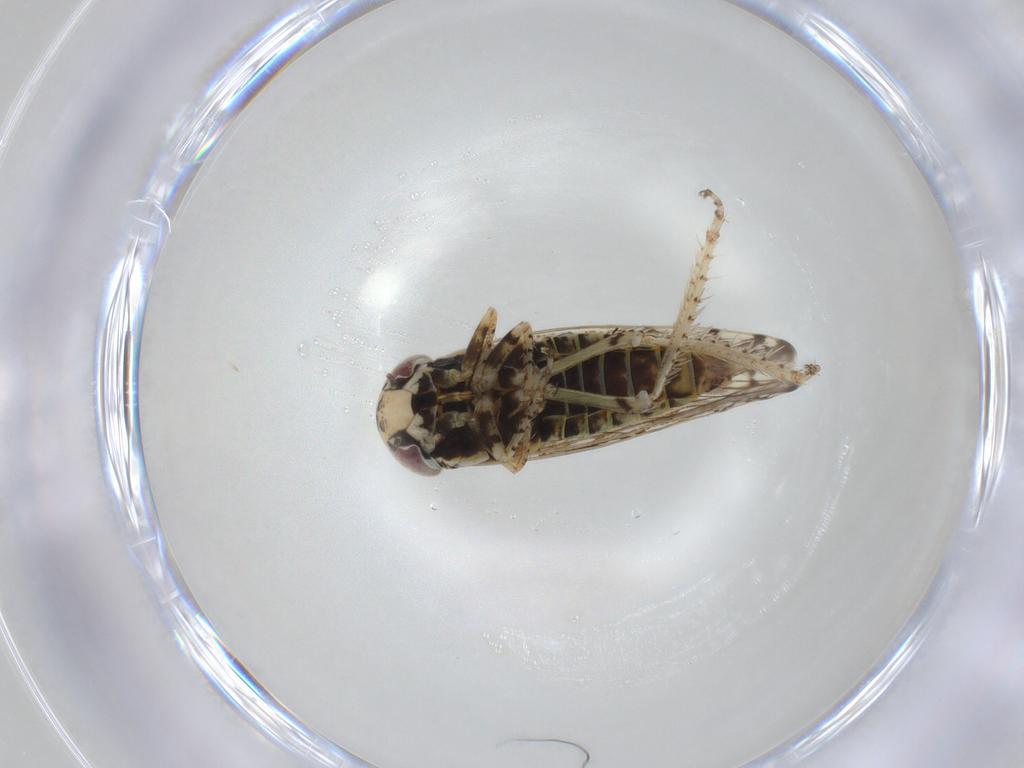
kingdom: Animalia
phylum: Arthropoda
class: Insecta
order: Hemiptera
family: Cicadellidae
